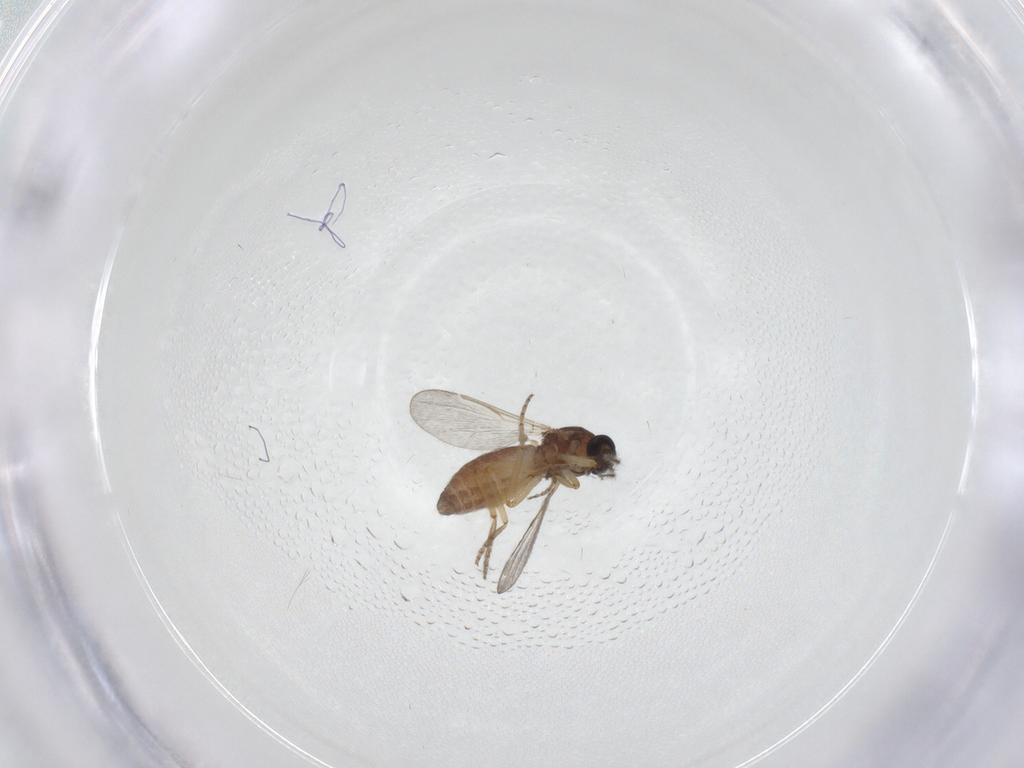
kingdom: Animalia
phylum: Arthropoda
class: Insecta
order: Diptera
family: Ceratopogonidae
